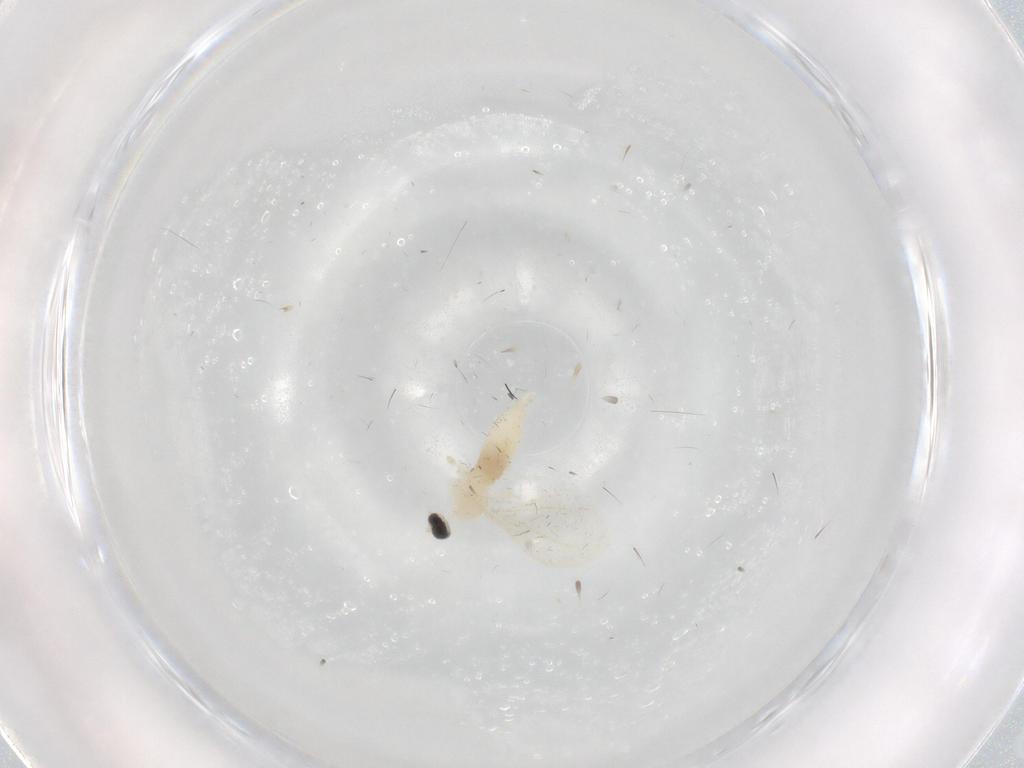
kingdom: Animalia
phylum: Arthropoda
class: Insecta
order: Diptera
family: Cecidomyiidae
